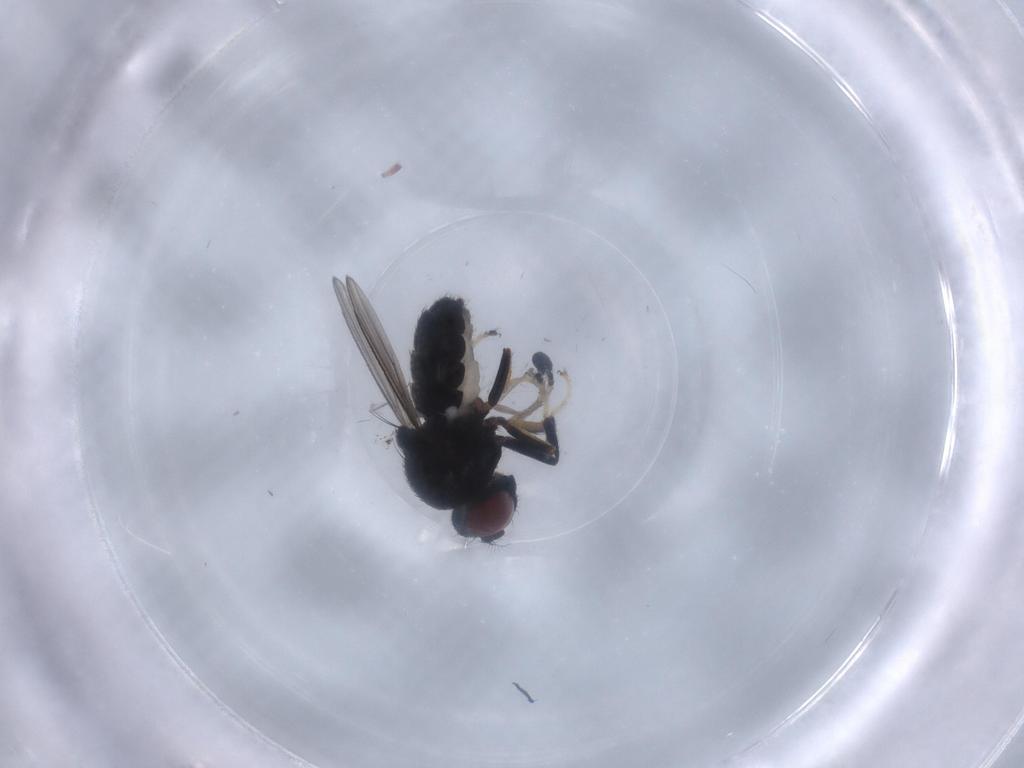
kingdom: Animalia
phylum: Arthropoda
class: Insecta
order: Diptera
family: Ephydridae
